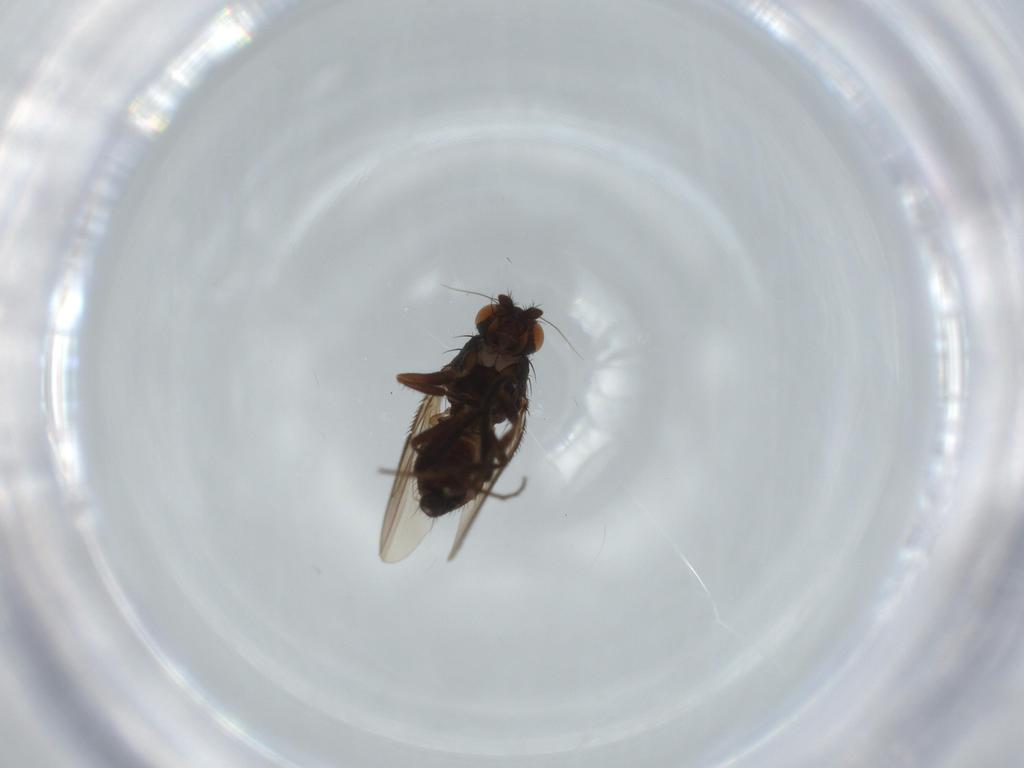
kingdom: Animalia
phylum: Arthropoda
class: Insecta
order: Diptera
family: Sphaeroceridae
